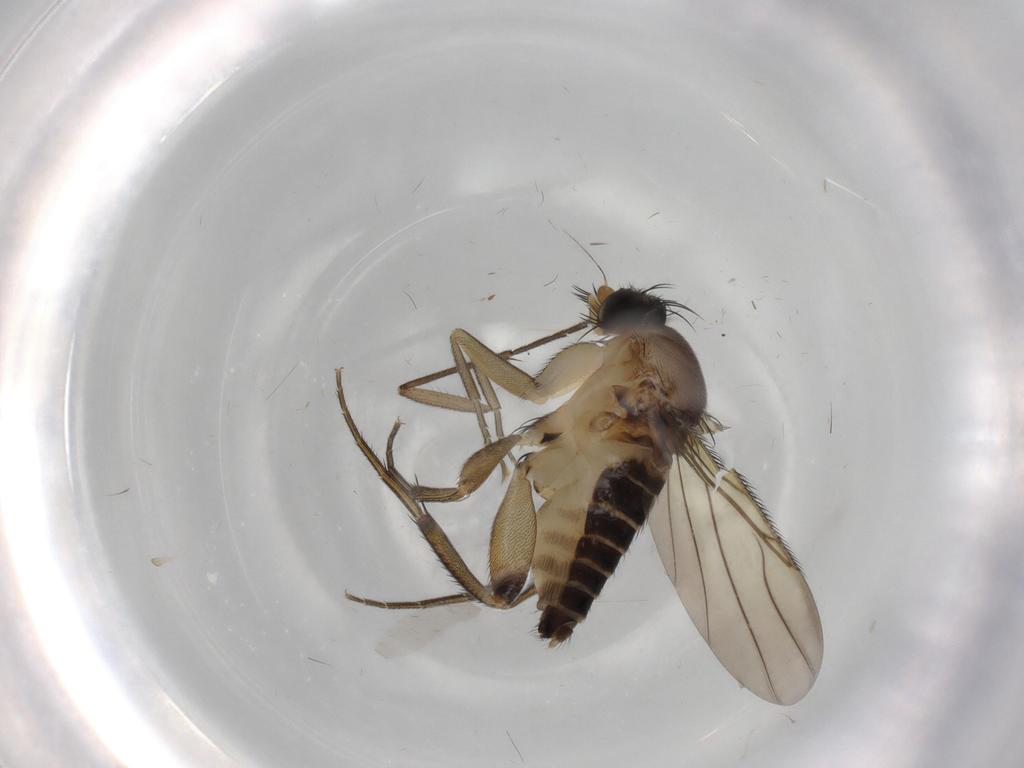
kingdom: Animalia
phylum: Arthropoda
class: Insecta
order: Diptera
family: Phoridae
